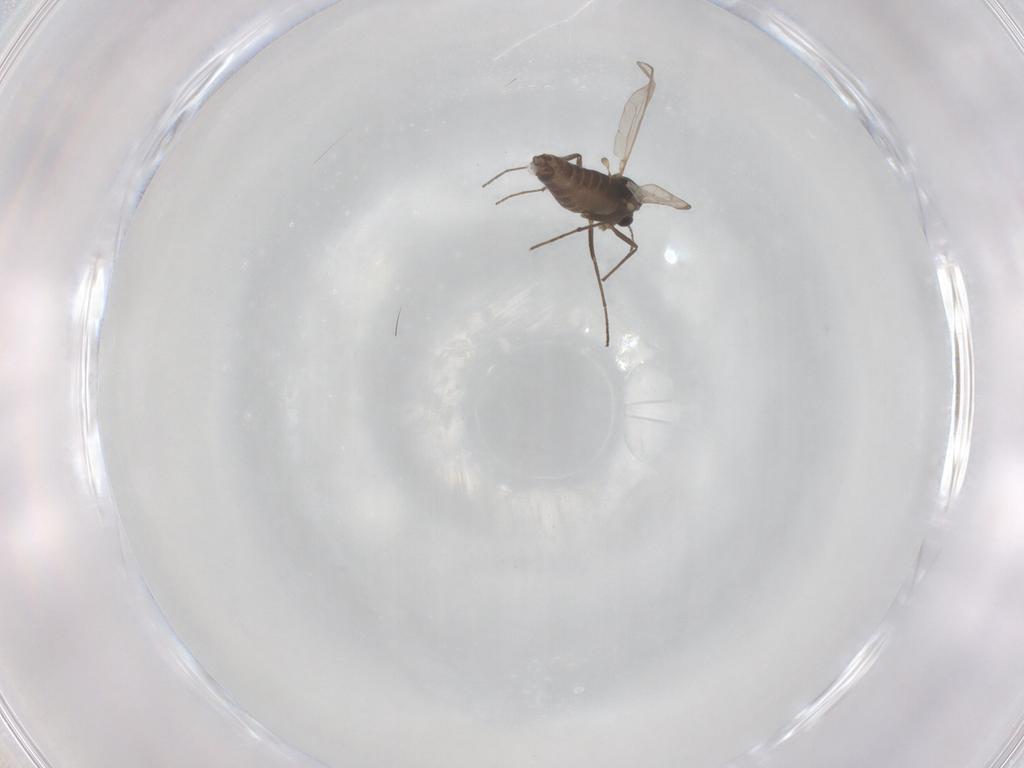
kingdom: Animalia
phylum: Arthropoda
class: Insecta
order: Diptera
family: Chironomidae
